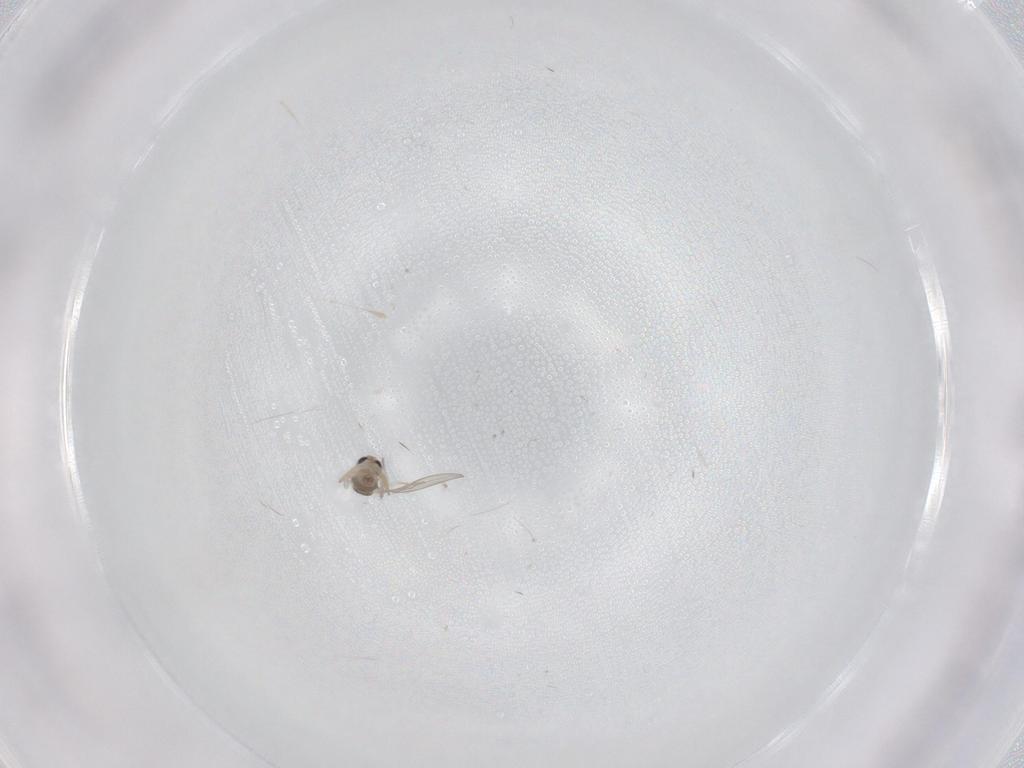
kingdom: Animalia
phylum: Arthropoda
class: Insecta
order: Diptera
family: Cecidomyiidae
